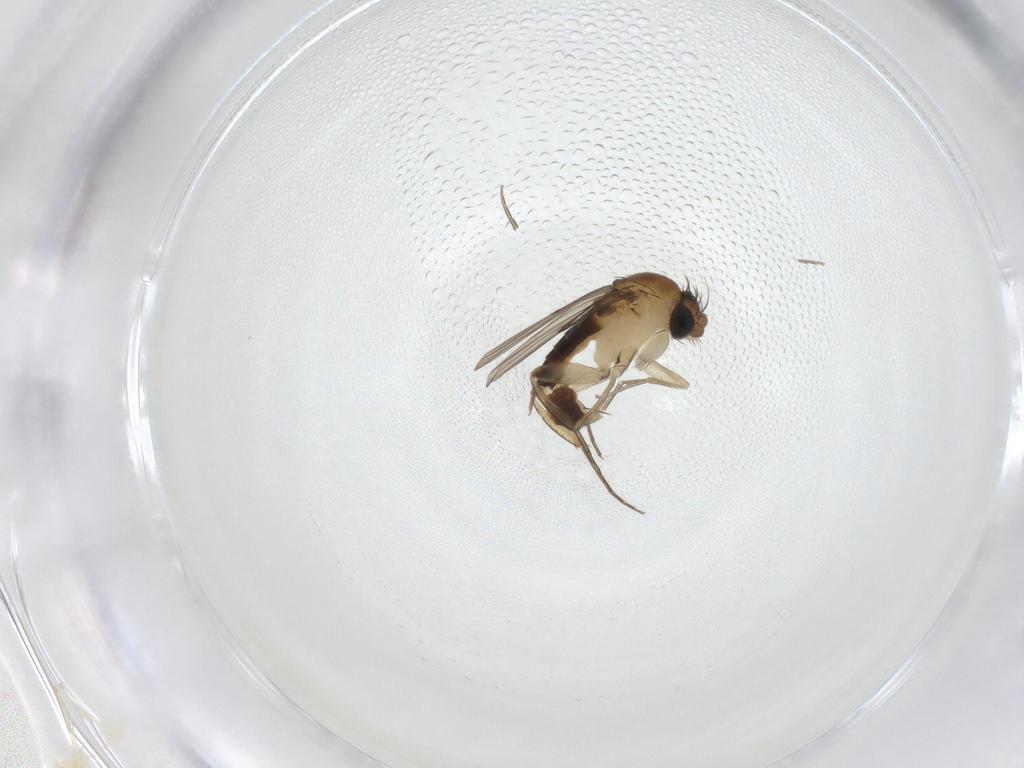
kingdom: Animalia
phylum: Arthropoda
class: Insecta
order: Diptera
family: Phoridae
